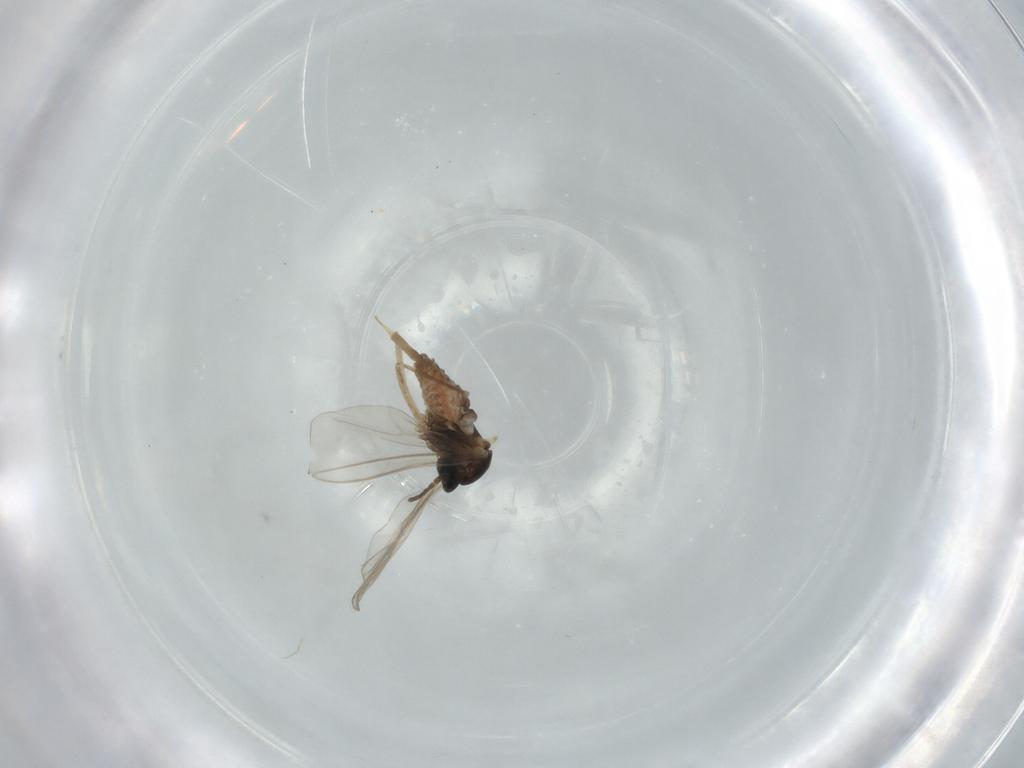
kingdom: Animalia
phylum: Arthropoda
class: Insecta
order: Diptera
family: Cecidomyiidae
